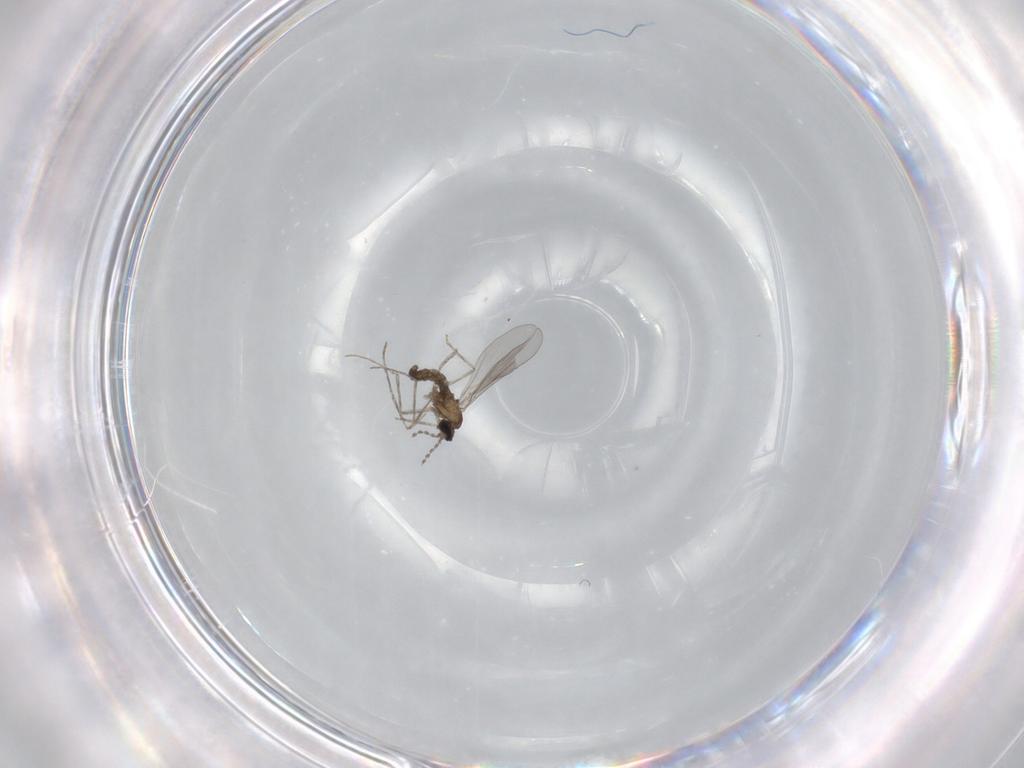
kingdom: Animalia
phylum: Arthropoda
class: Insecta
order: Diptera
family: Cecidomyiidae
